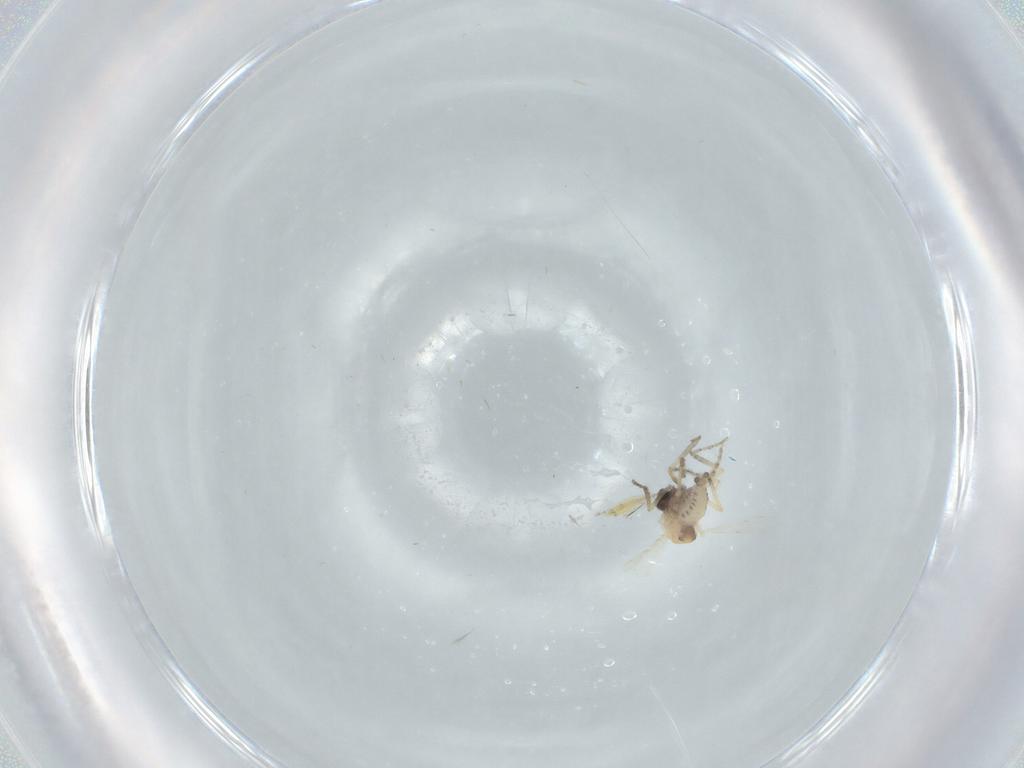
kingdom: Animalia
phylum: Arthropoda
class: Insecta
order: Diptera
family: Ceratopogonidae
